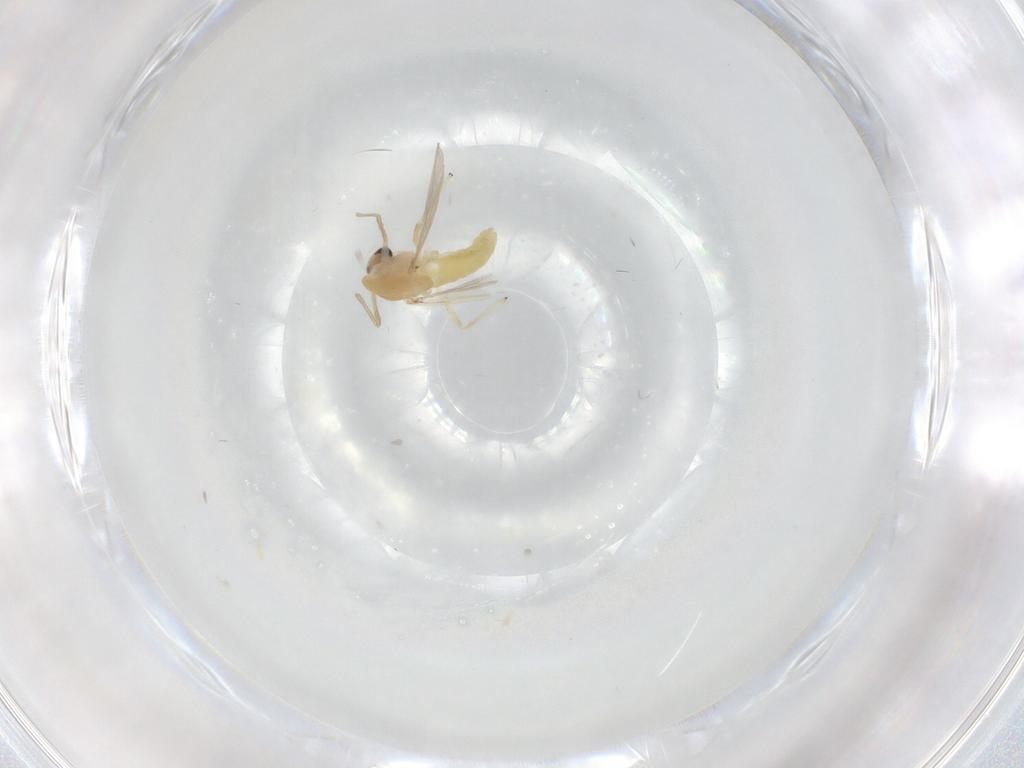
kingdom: Animalia
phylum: Arthropoda
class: Insecta
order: Diptera
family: Chironomidae
